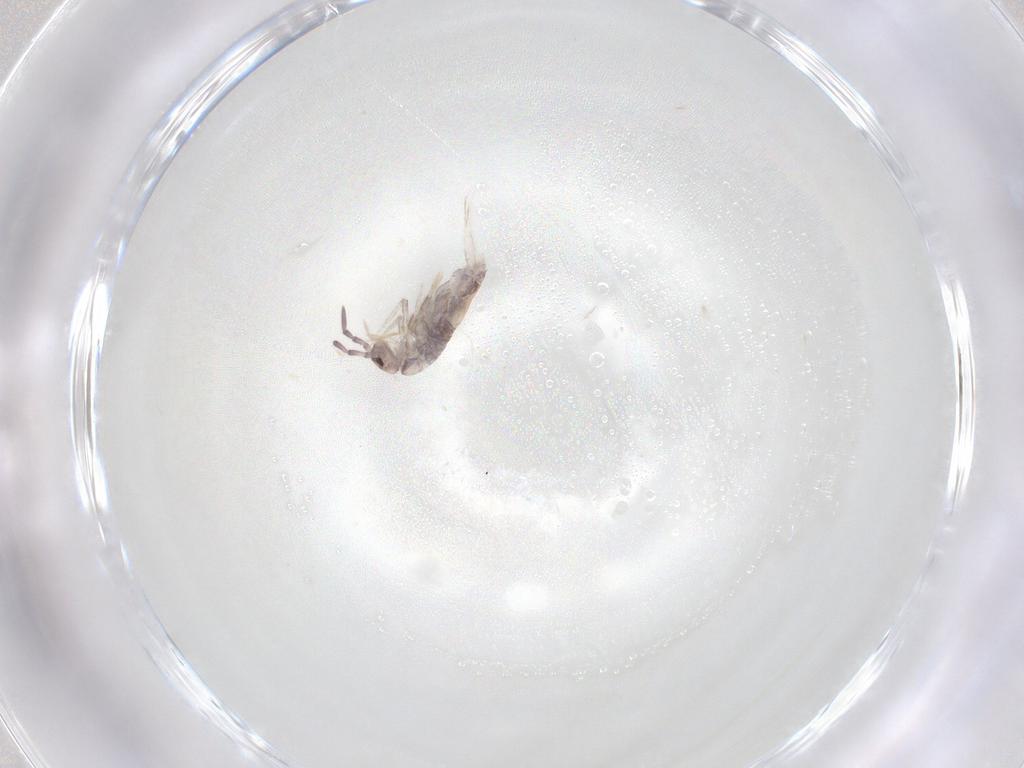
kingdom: Animalia
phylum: Arthropoda
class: Collembola
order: Entomobryomorpha
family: Entomobryidae
